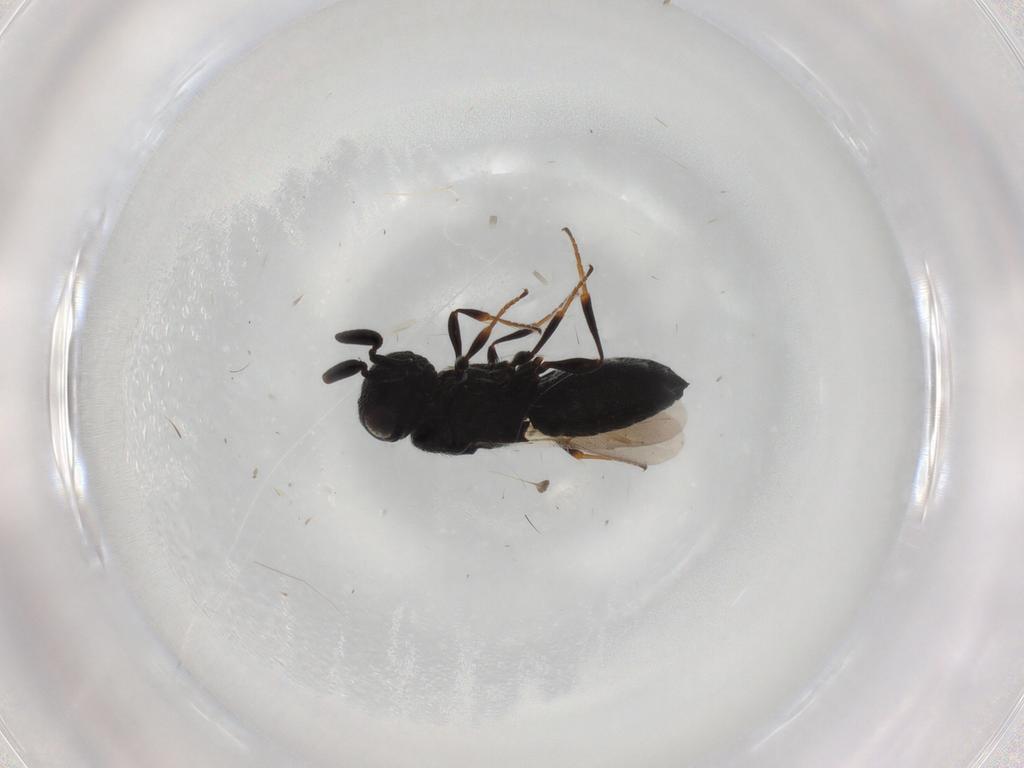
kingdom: Animalia
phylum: Arthropoda
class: Insecta
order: Hymenoptera
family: Scelionidae
